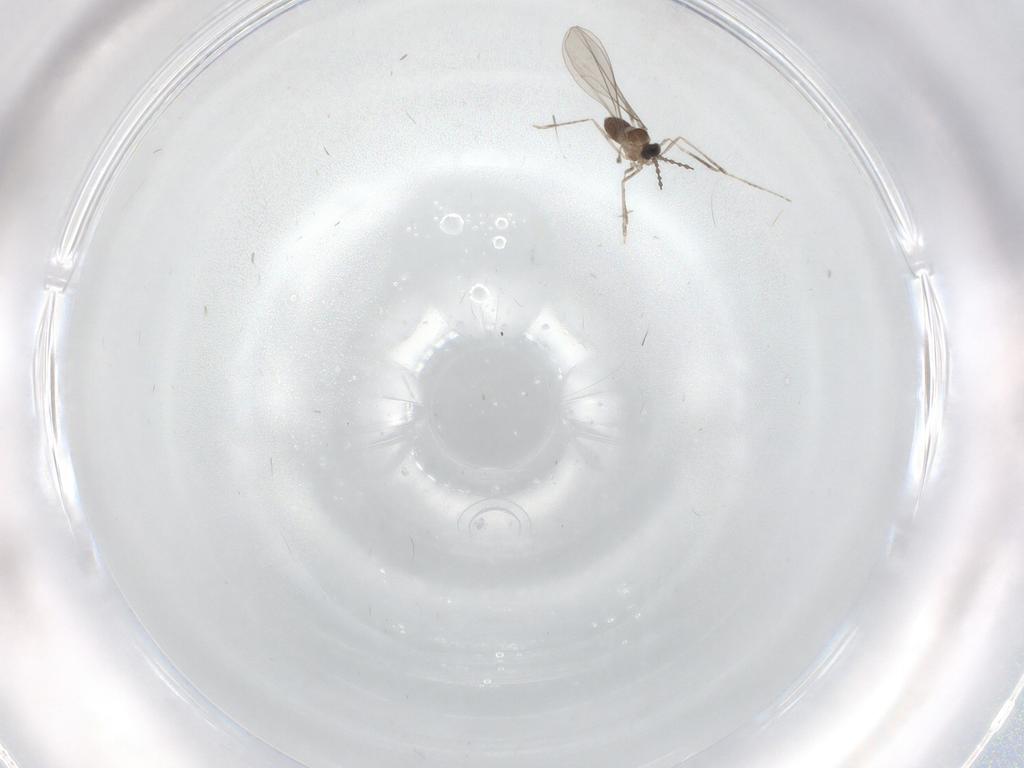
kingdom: Animalia
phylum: Arthropoda
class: Insecta
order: Diptera
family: Cecidomyiidae
